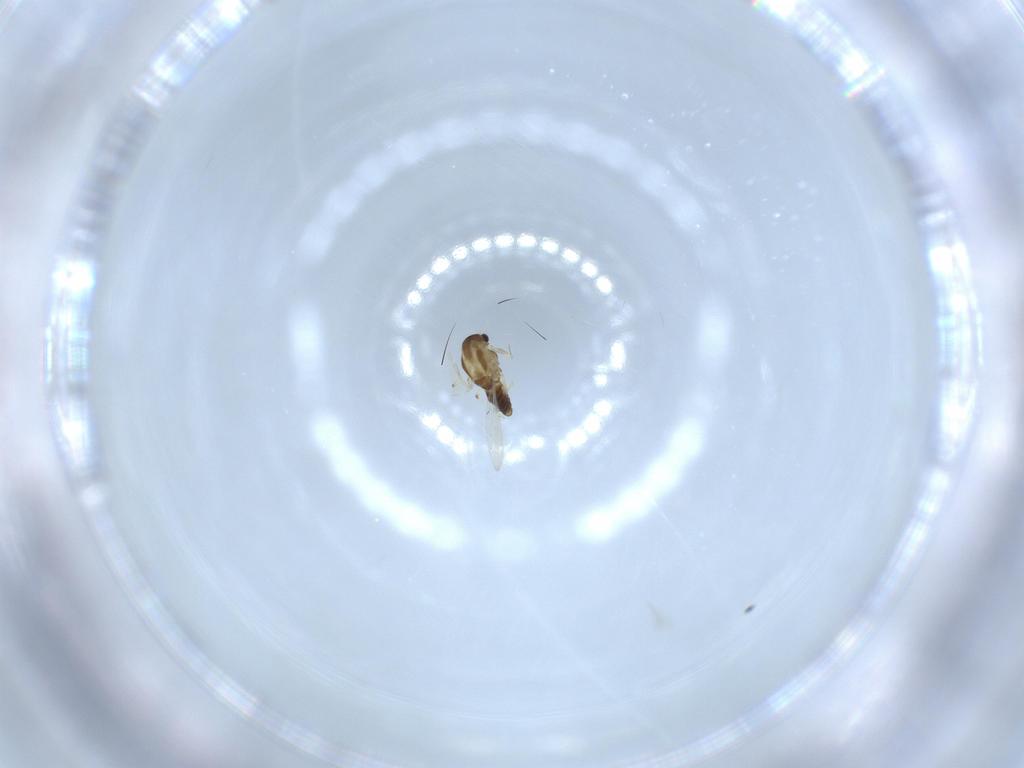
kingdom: Animalia
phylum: Arthropoda
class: Insecta
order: Diptera
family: Chironomidae
